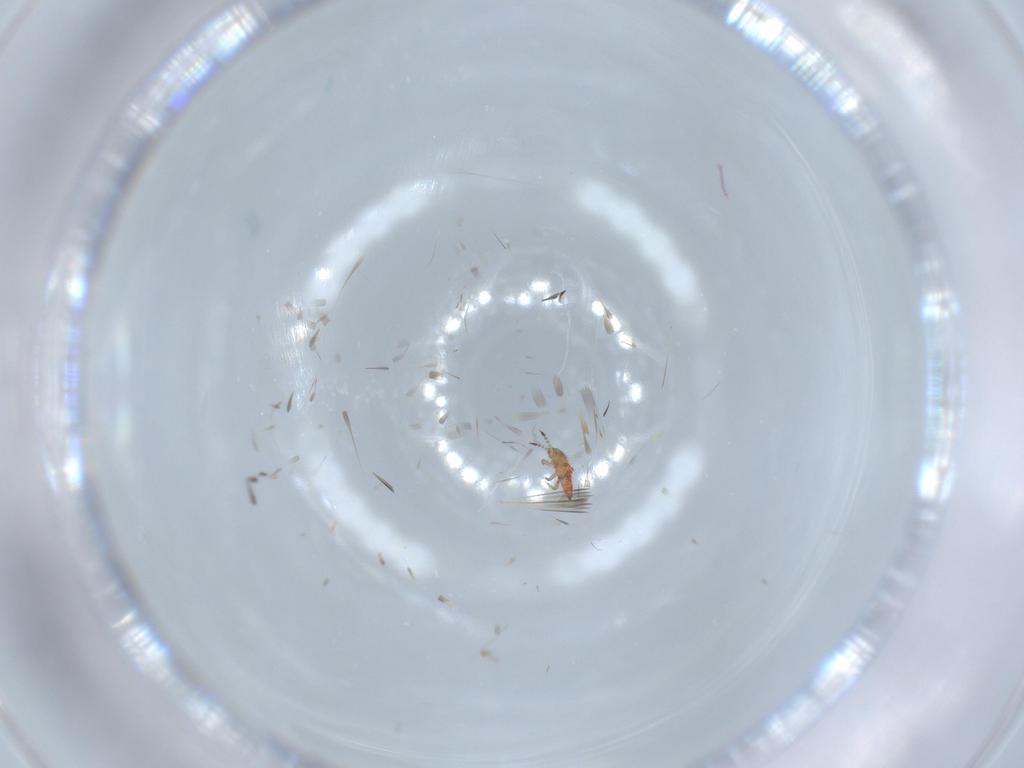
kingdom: Animalia
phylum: Arthropoda
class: Insecta
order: Thysanoptera
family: Phlaeothripidae
